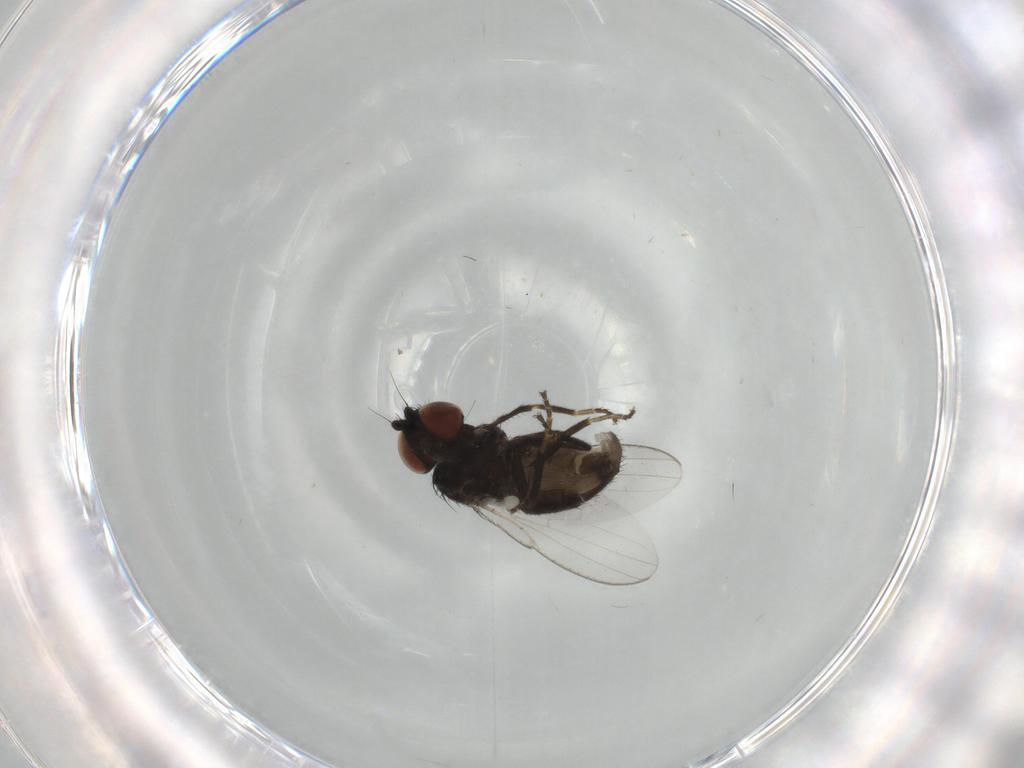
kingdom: Animalia
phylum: Arthropoda
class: Insecta
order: Diptera
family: Milichiidae
